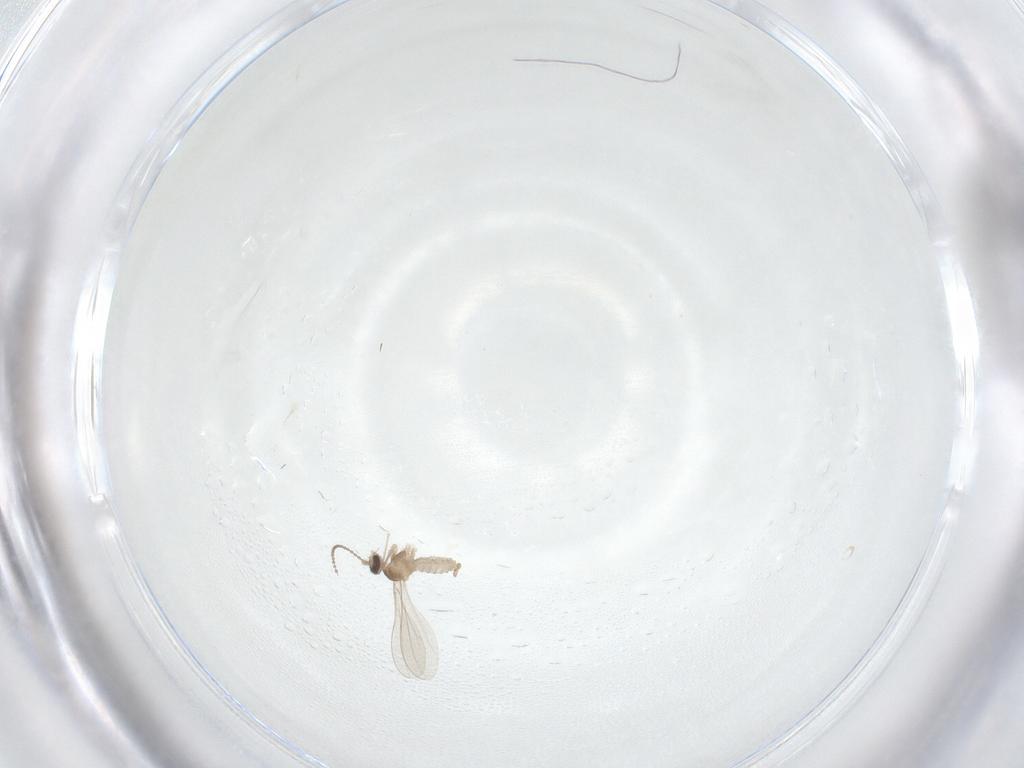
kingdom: Animalia
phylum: Arthropoda
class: Insecta
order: Diptera
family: Cecidomyiidae
